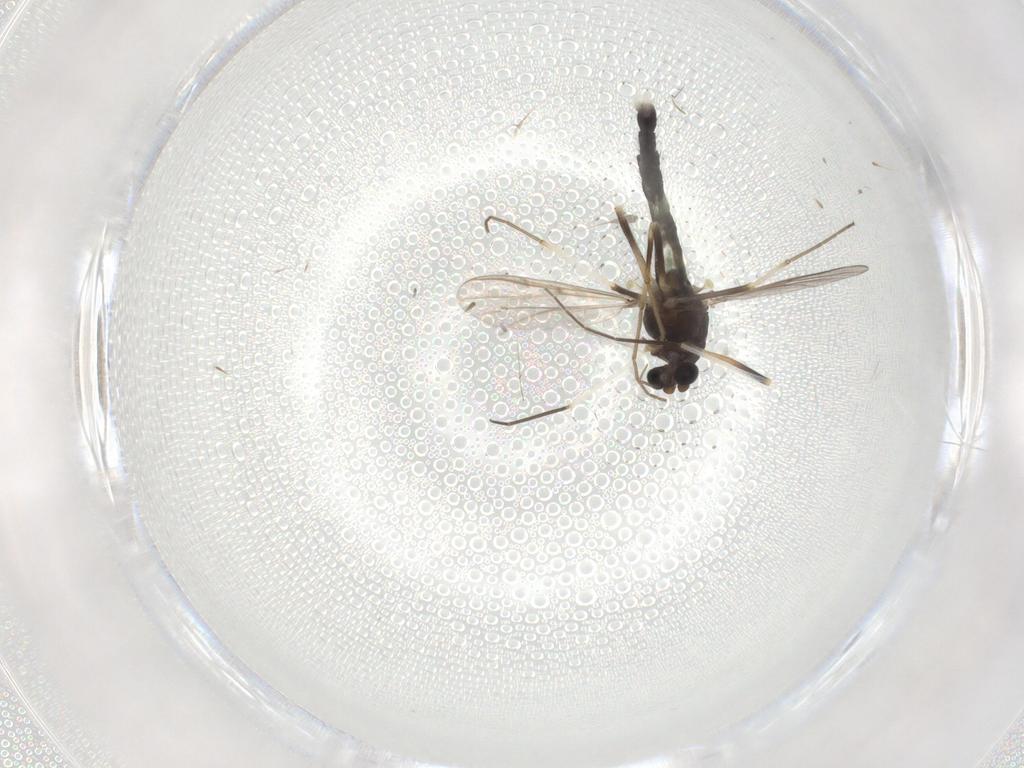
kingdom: Animalia
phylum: Arthropoda
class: Insecta
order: Diptera
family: Chironomidae
